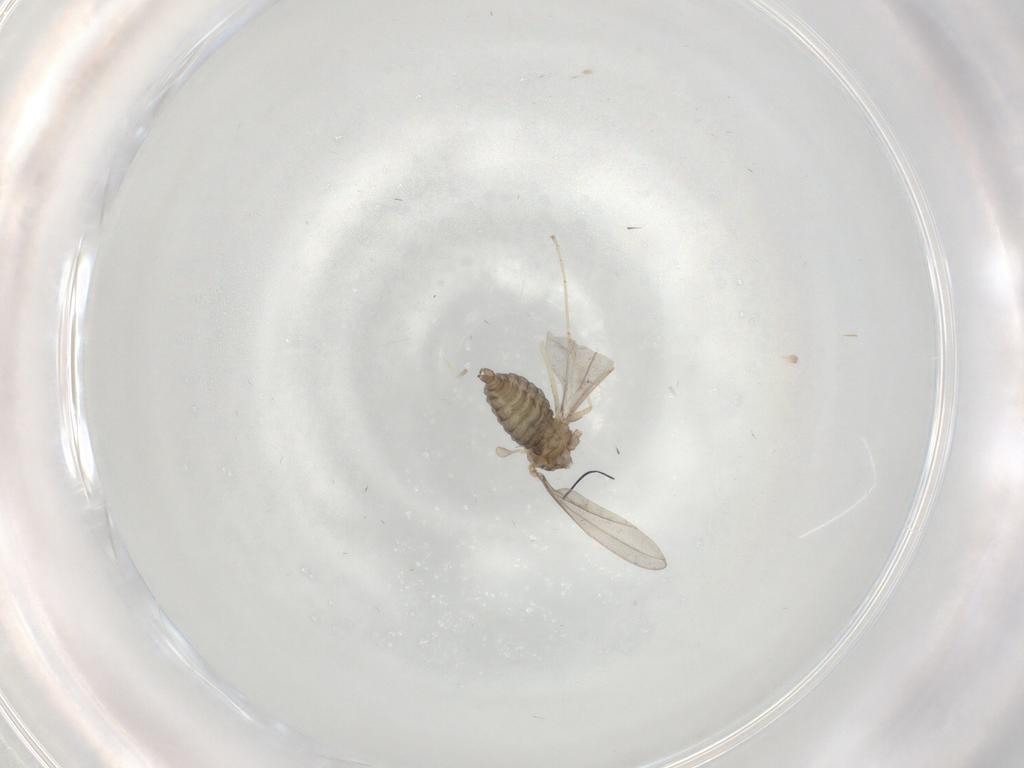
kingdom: Animalia
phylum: Arthropoda
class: Insecta
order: Diptera
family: Cecidomyiidae
